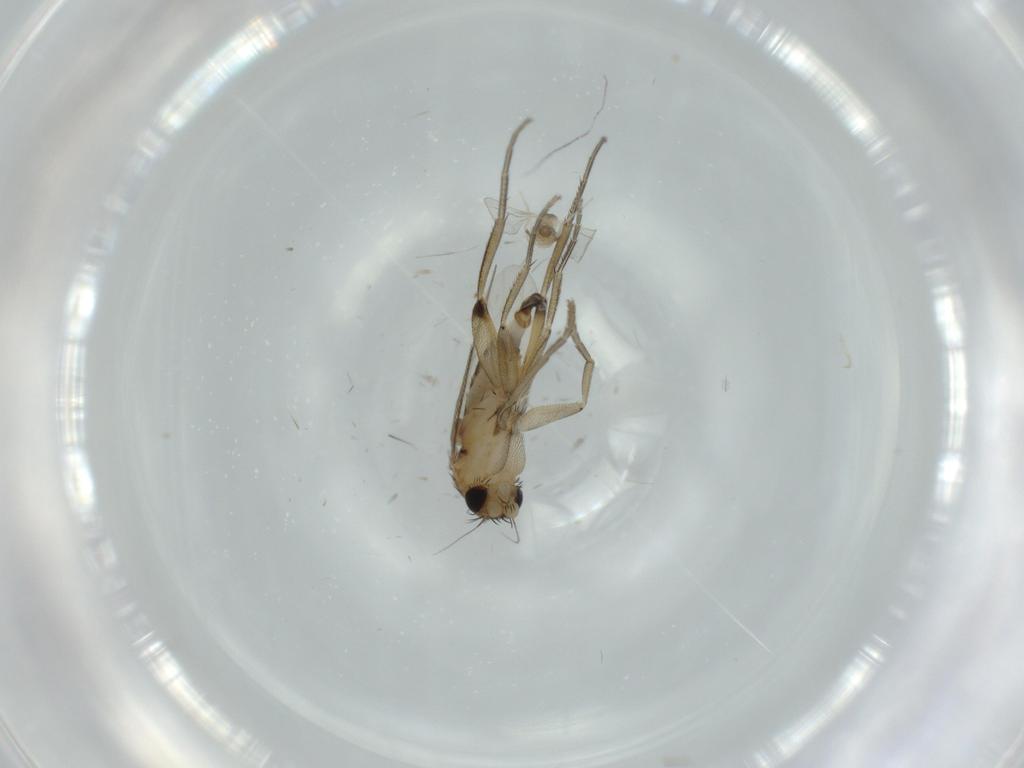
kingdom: Animalia
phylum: Arthropoda
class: Insecta
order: Diptera
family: Phoridae
